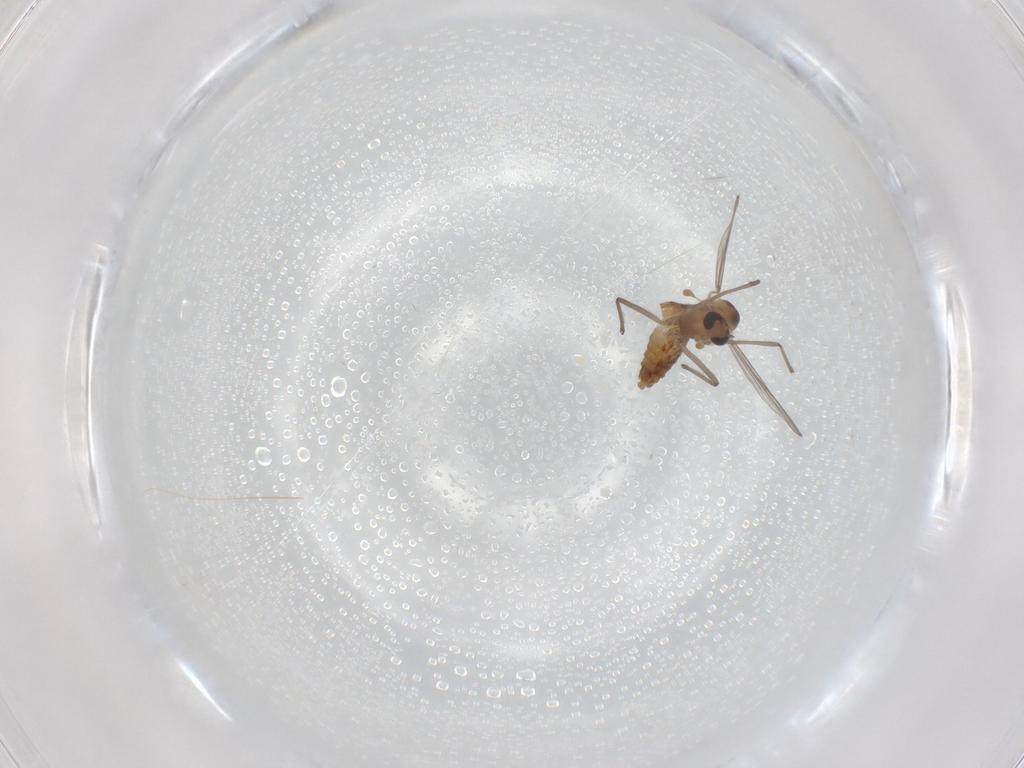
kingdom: Animalia
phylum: Arthropoda
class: Insecta
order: Diptera
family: Chironomidae
